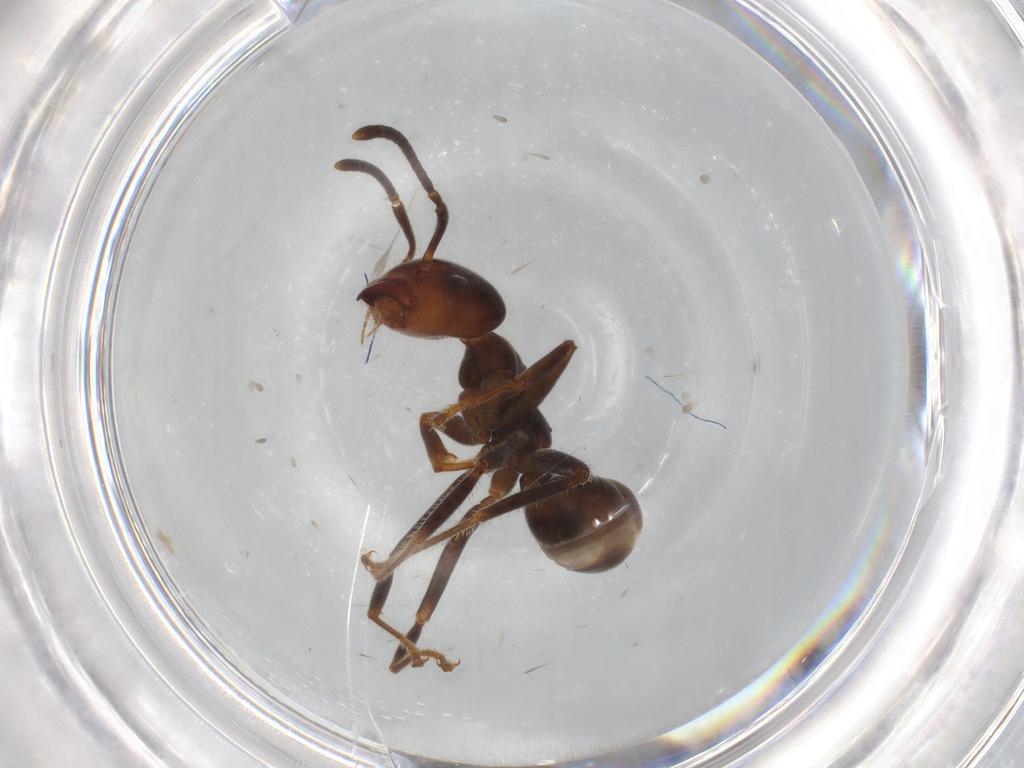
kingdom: Animalia
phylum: Arthropoda
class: Insecta
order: Hymenoptera
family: Formicidae
